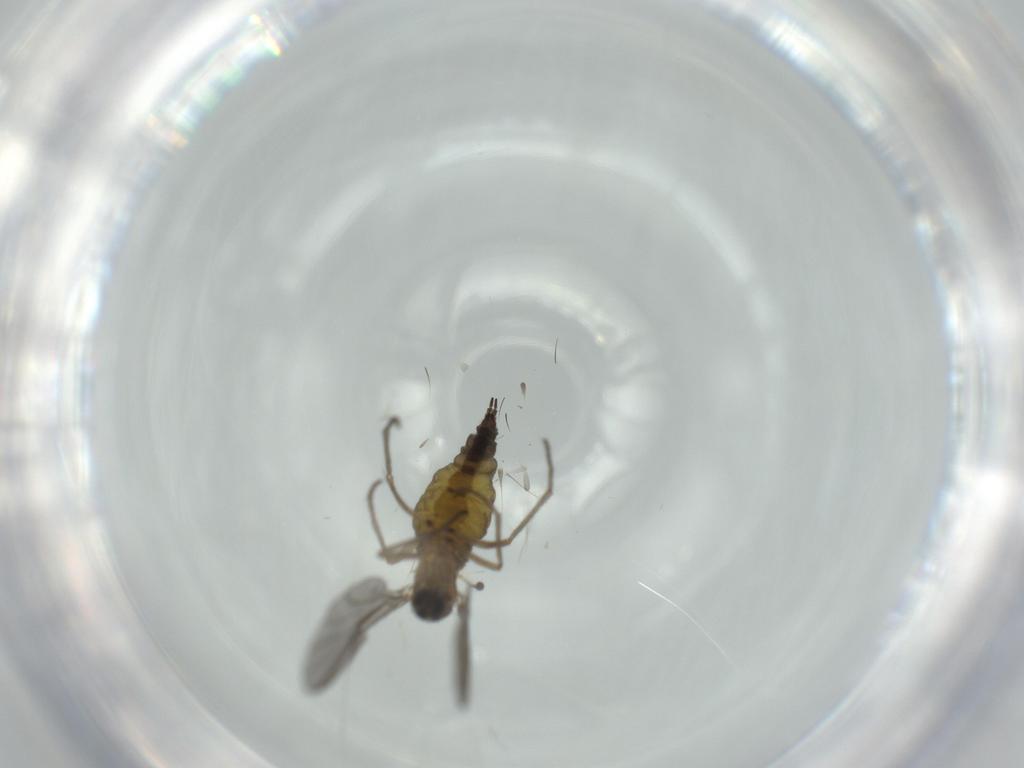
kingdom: Animalia
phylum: Arthropoda
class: Insecta
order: Diptera
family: Sciaridae
